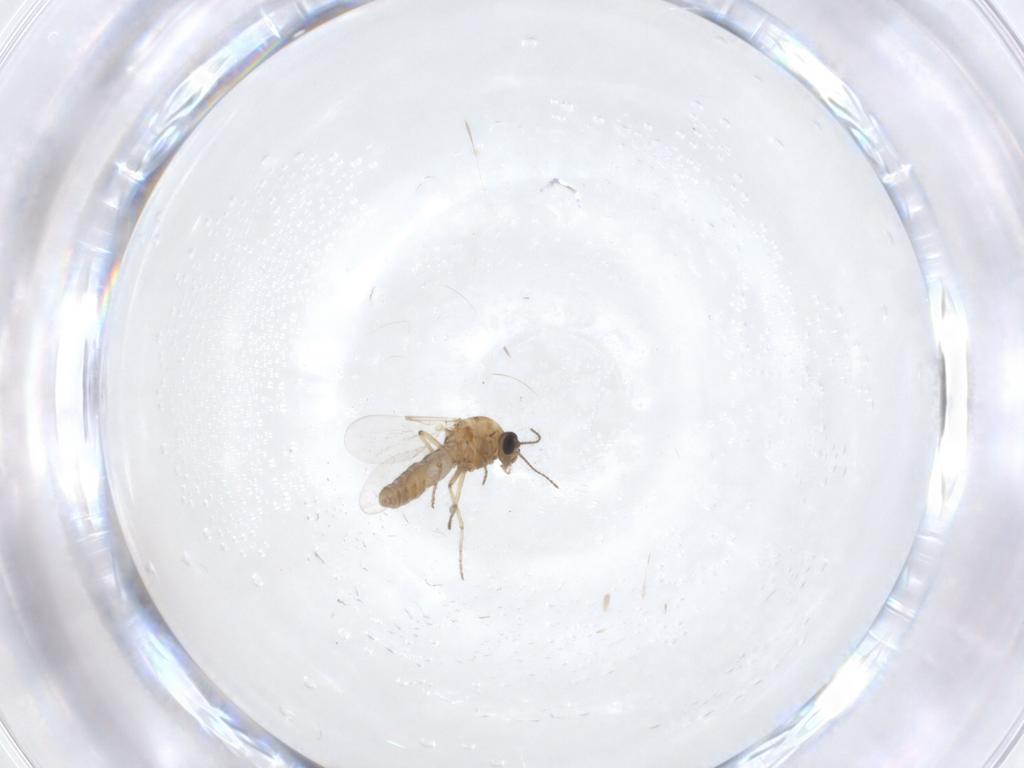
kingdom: Animalia
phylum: Arthropoda
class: Insecta
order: Diptera
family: Ceratopogonidae
